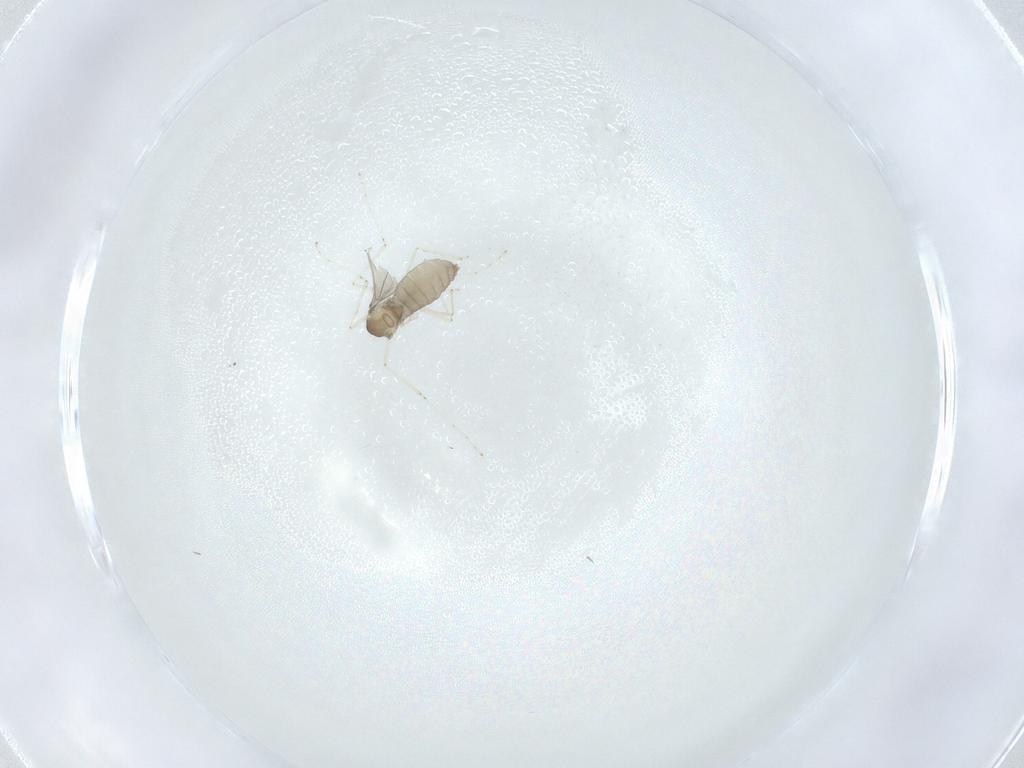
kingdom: Animalia
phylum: Arthropoda
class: Insecta
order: Diptera
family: Cecidomyiidae
